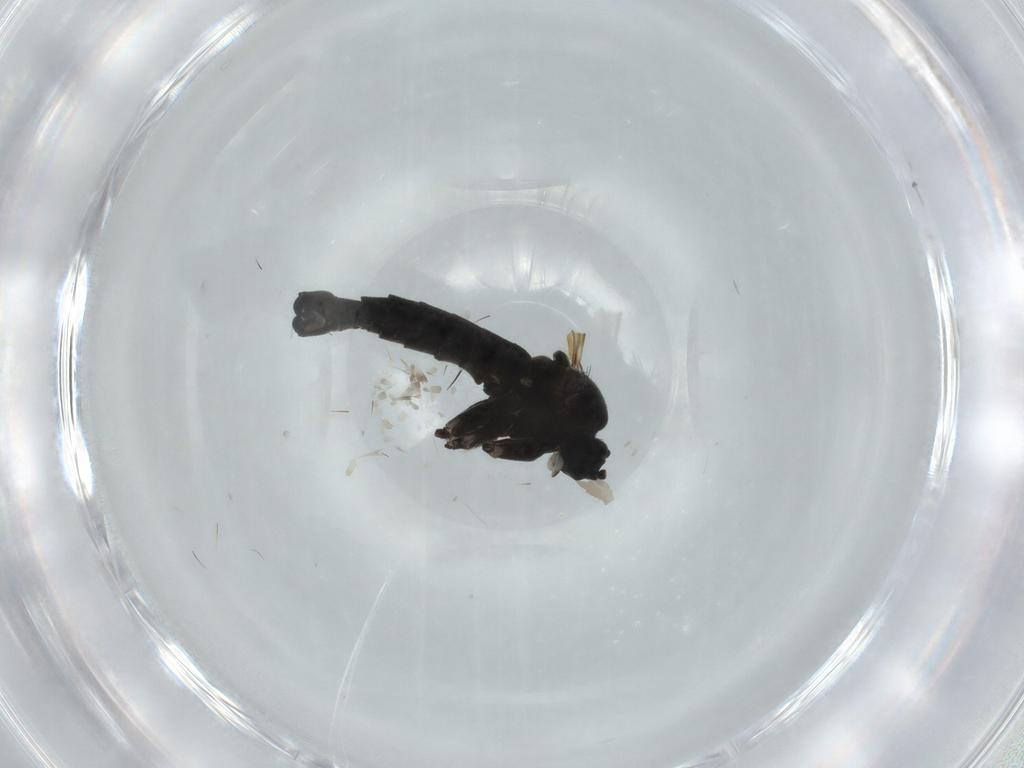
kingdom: Animalia
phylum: Arthropoda
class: Insecta
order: Diptera
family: Sciaridae
